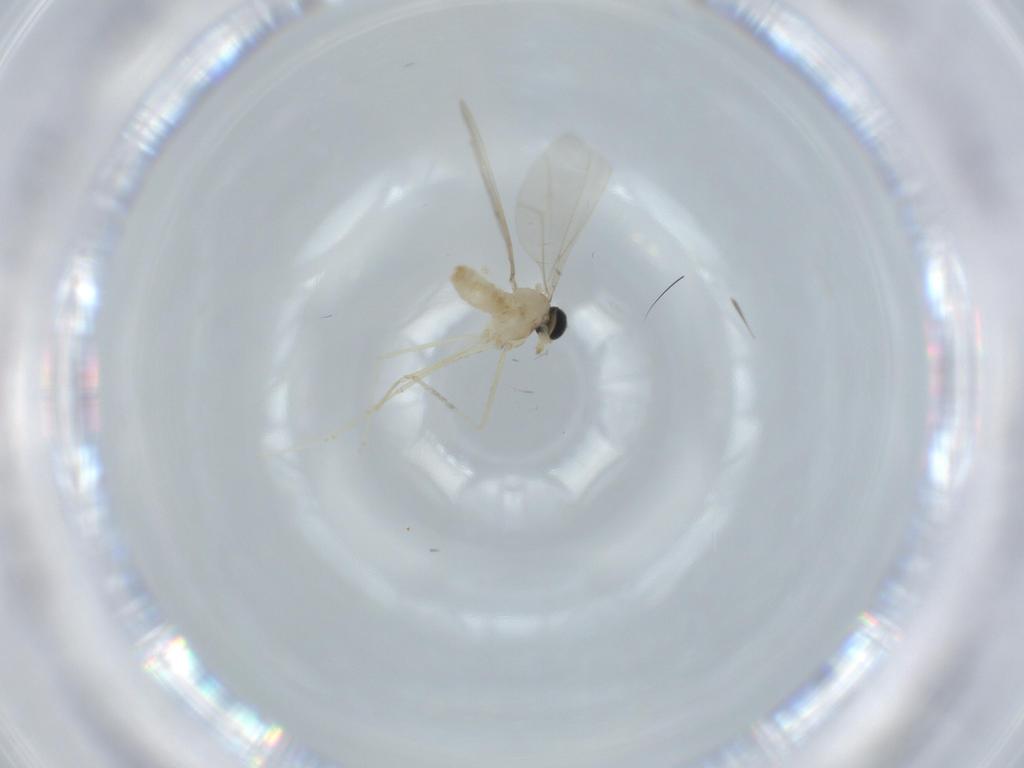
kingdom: Animalia
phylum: Arthropoda
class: Insecta
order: Diptera
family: Cecidomyiidae
